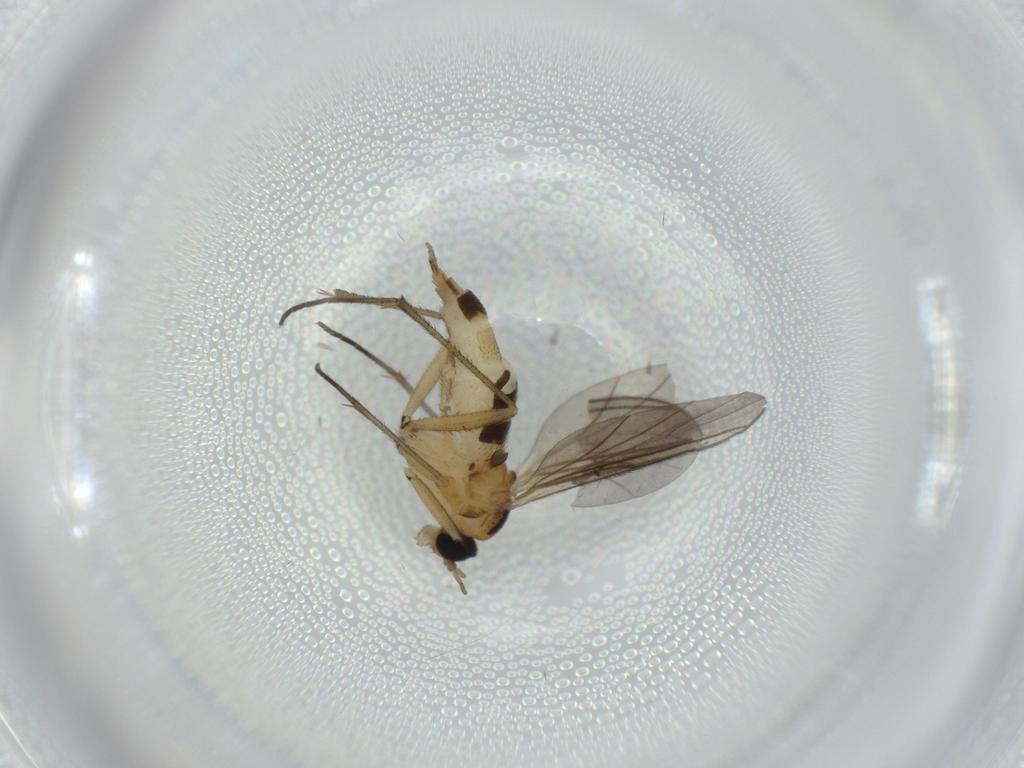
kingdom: Animalia
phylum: Arthropoda
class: Insecta
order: Diptera
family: Sciaridae
